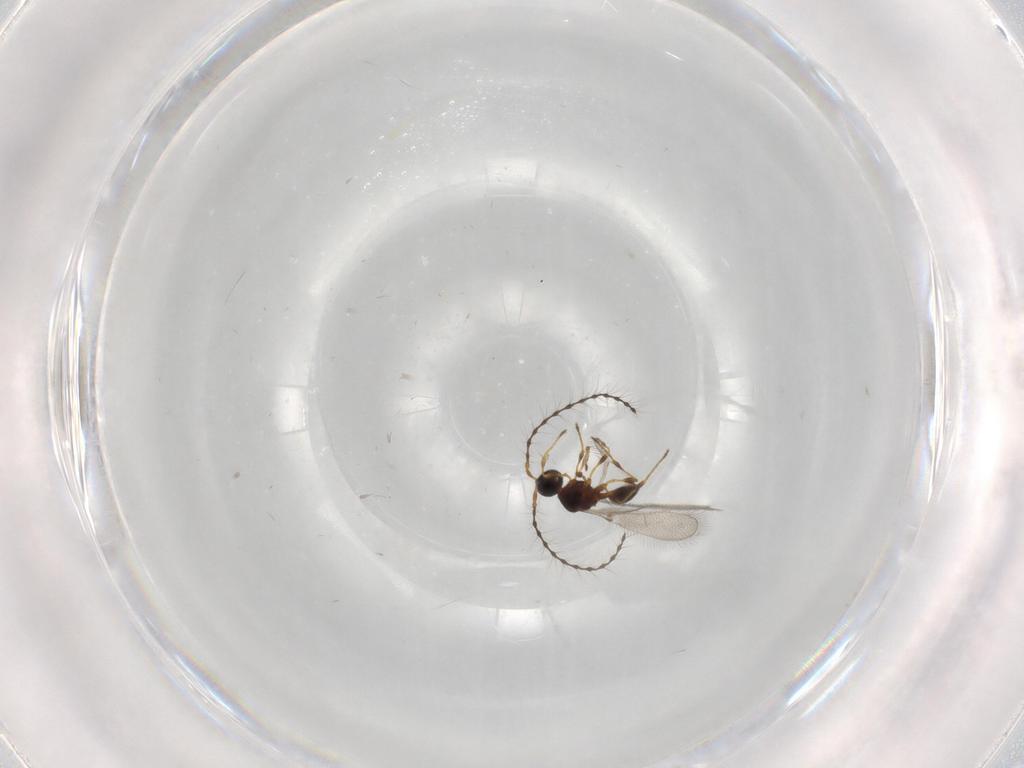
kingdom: Animalia
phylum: Arthropoda
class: Insecta
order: Hymenoptera
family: Diapriidae
